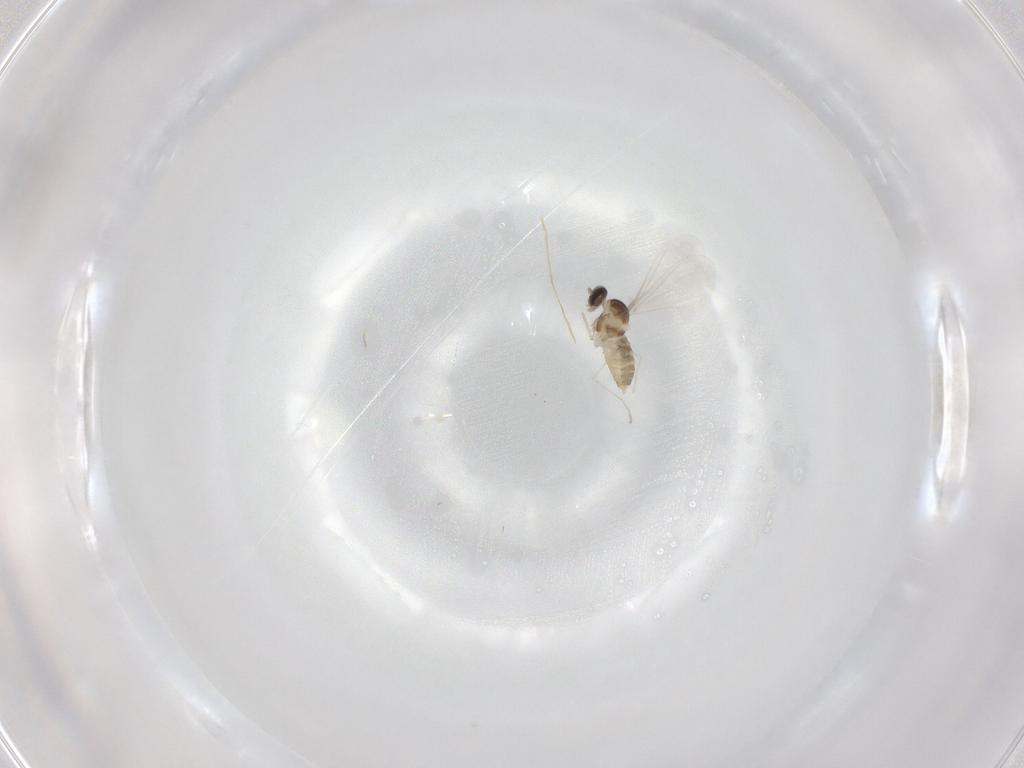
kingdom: Animalia
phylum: Arthropoda
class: Insecta
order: Diptera
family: Cecidomyiidae
